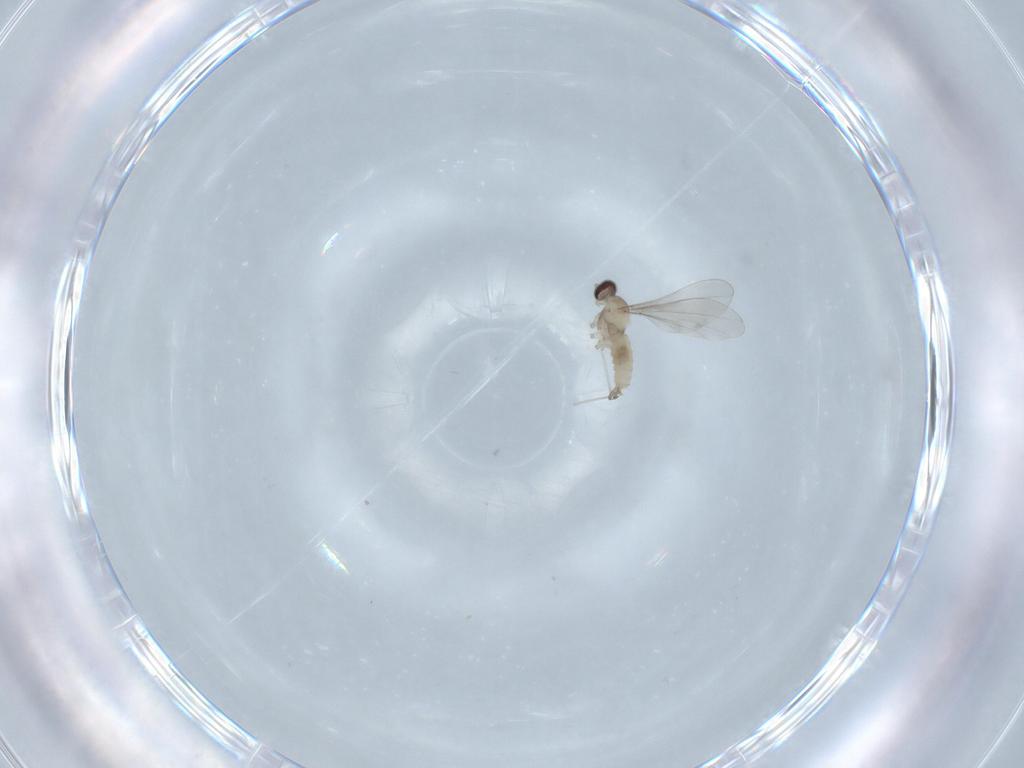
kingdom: Animalia
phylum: Arthropoda
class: Insecta
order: Diptera
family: Cecidomyiidae
